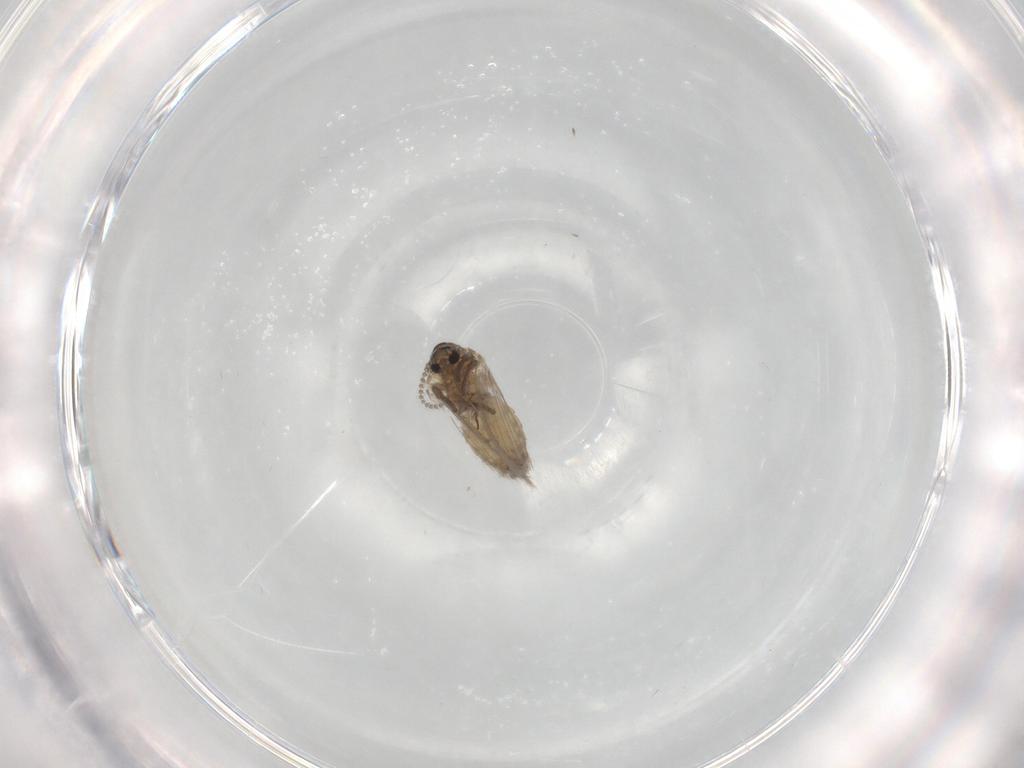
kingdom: Animalia
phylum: Arthropoda
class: Insecta
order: Diptera
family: Psychodidae
